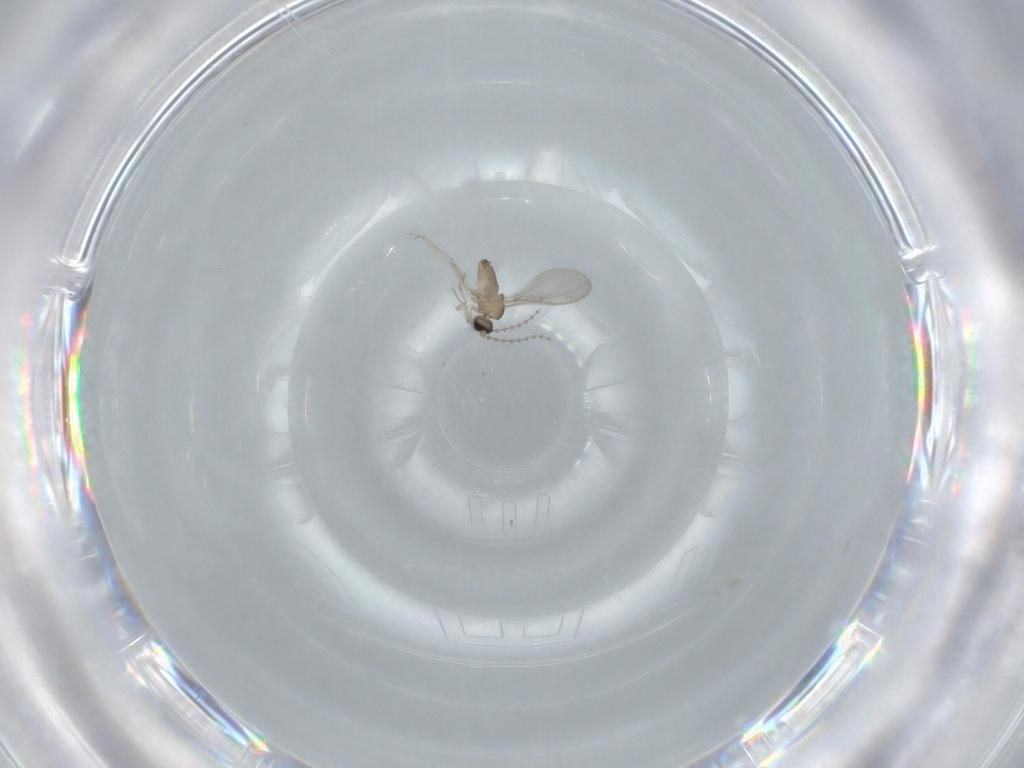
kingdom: Animalia
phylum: Arthropoda
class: Insecta
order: Diptera
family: Cecidomyiidae
